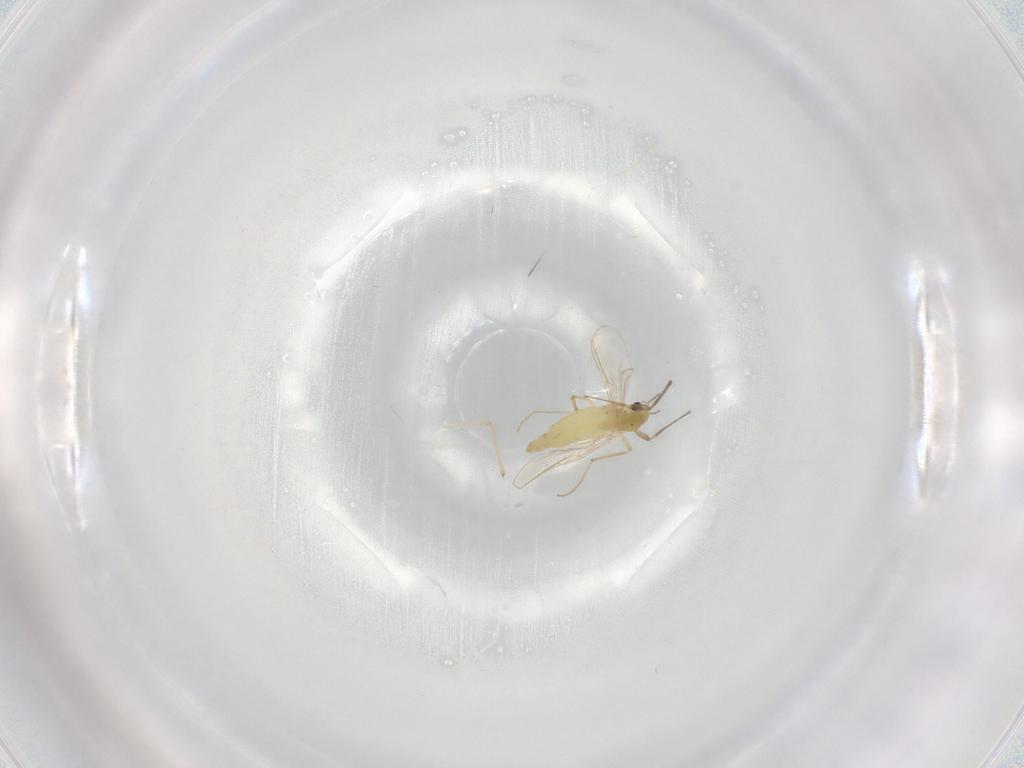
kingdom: Animalia
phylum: Arthropoda
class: Insecta
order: Diptera
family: Chironomidae
